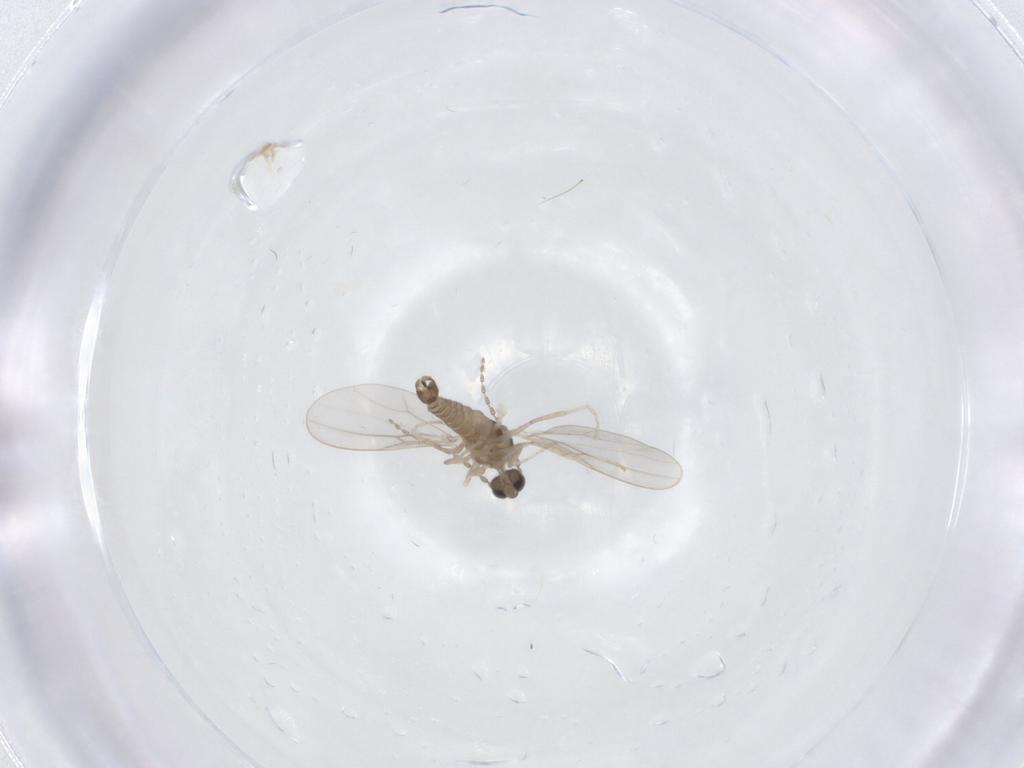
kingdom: Animalia
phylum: Arthropoda
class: Insecta
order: Diptera
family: Cecidomyiidae
